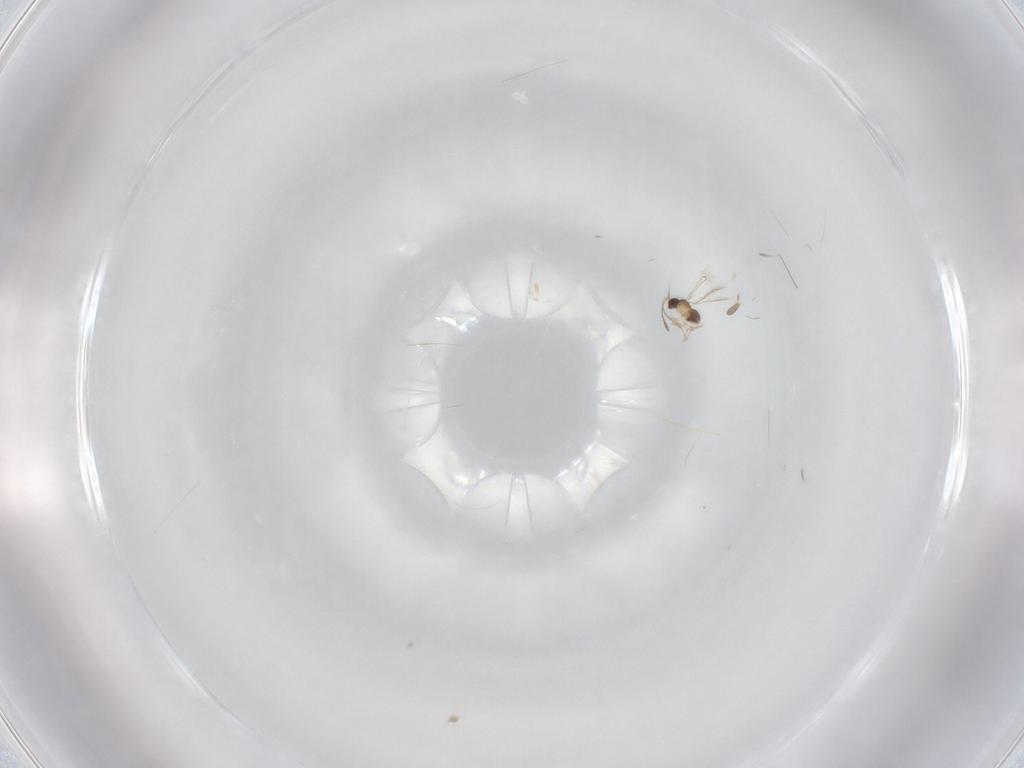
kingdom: Animalia
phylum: Arthropoda
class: Insecta
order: Hymenoptera
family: Mymaridae
